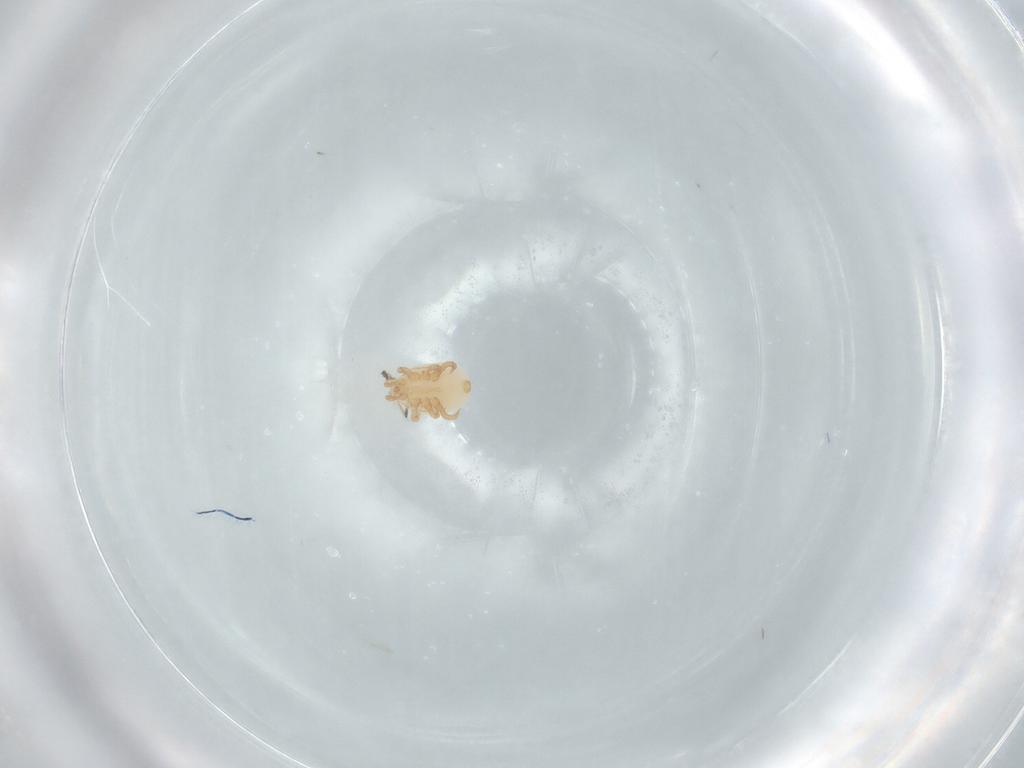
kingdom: Animalia
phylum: Arthropoda
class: Arachnida
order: Mesostigmata
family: Halolaelapidae
